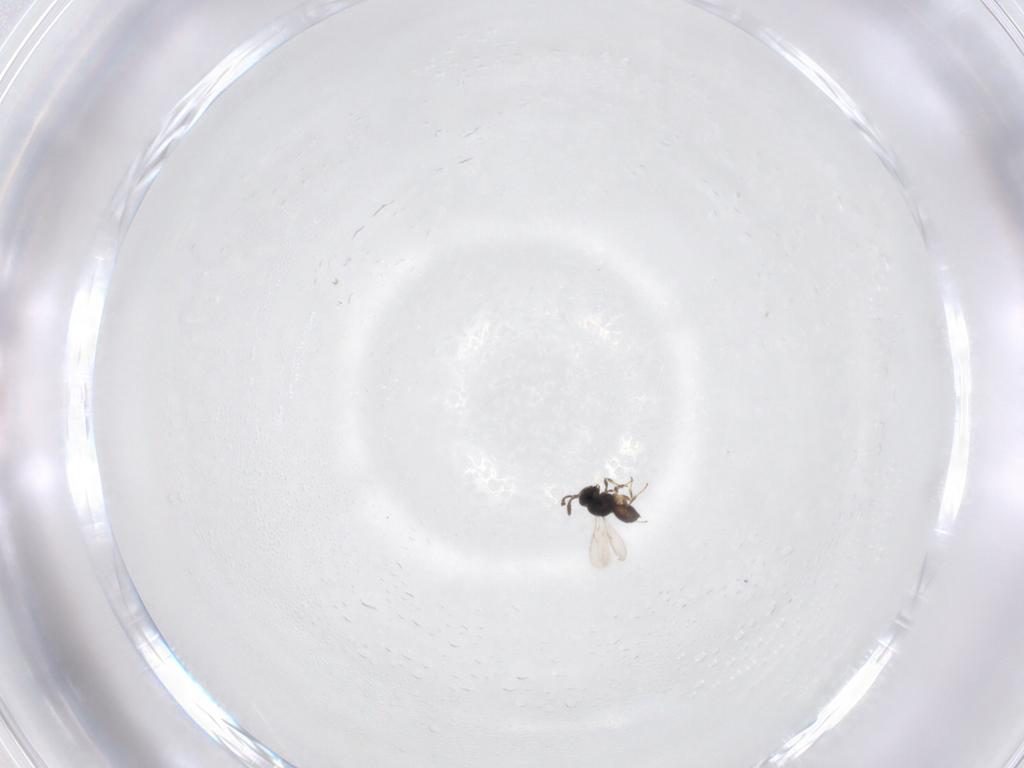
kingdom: Animalia
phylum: Arthropoda
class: Insecta
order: Hymenoptera
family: Scelionidae
